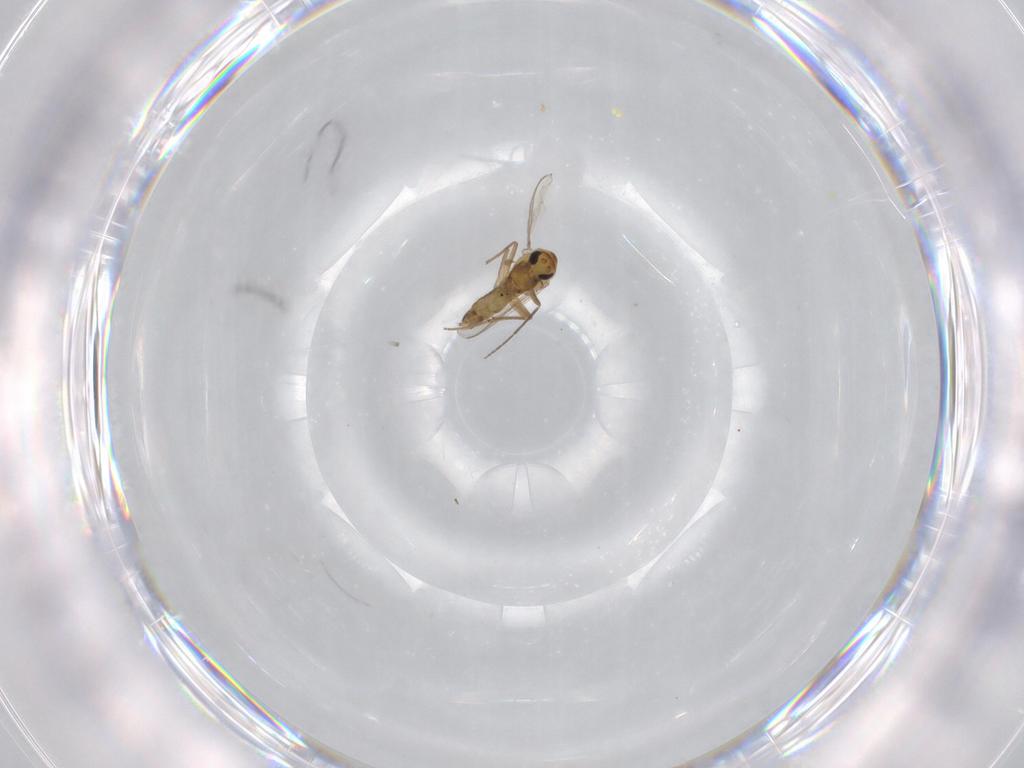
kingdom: Animalia
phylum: Arthropoda
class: Insecta
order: Diptera
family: Chironomidae
